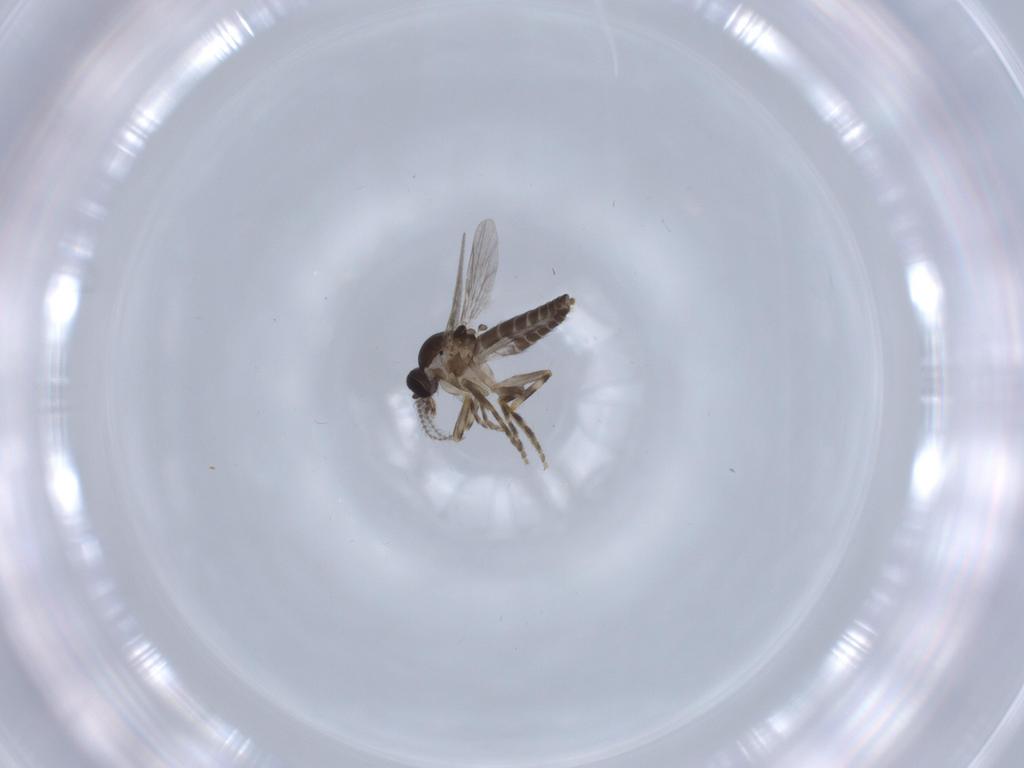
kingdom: Animalia
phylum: Arthropoda
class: Insecta
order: Diptera
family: Ceratopogonidae
